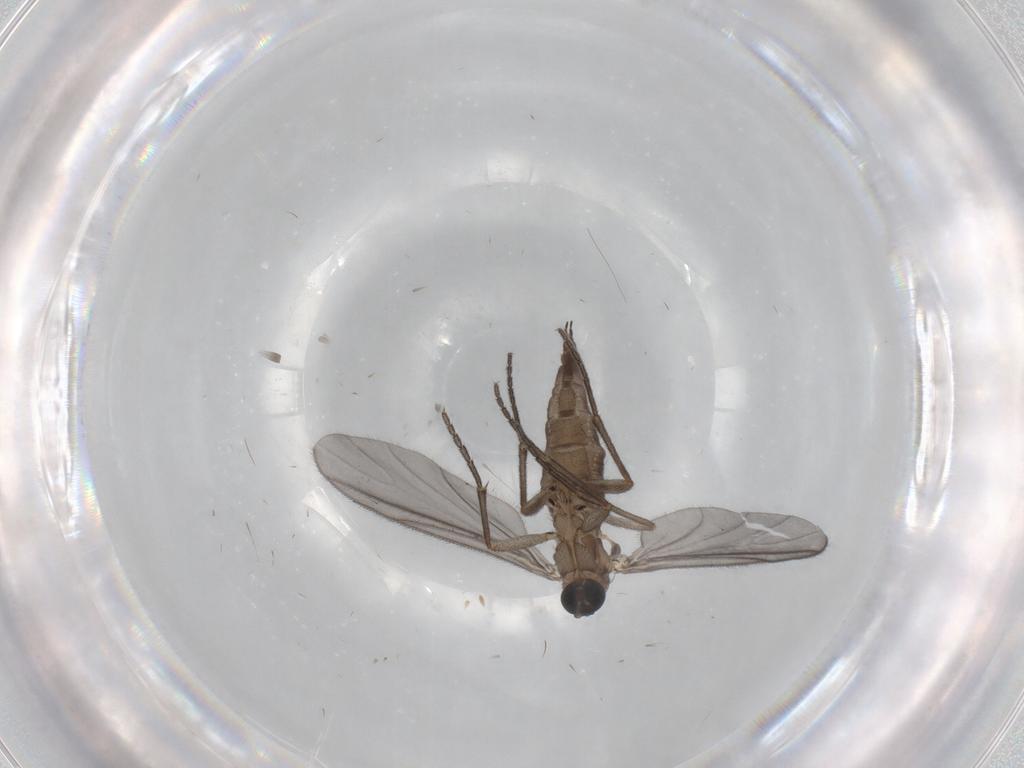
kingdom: Animalia
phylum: Arthropoda
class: Insecta
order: Diptera
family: Sciaridae
